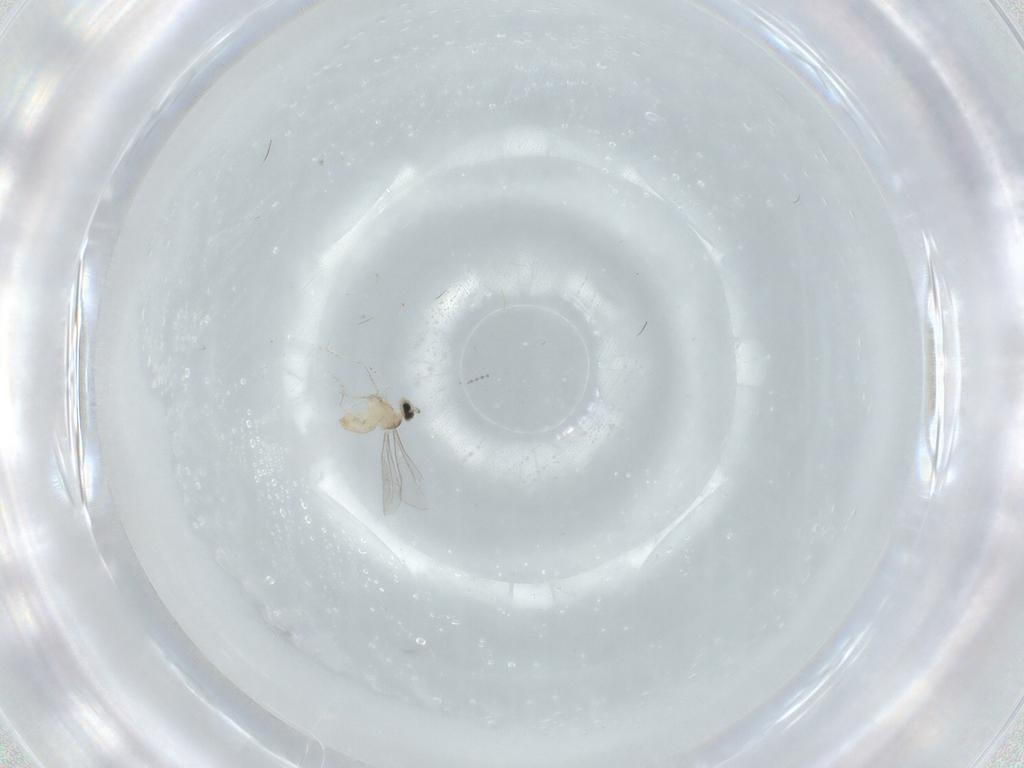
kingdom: Animalia
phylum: Arthropoda
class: Insecta
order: Diptera
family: Cecidomyiidae
